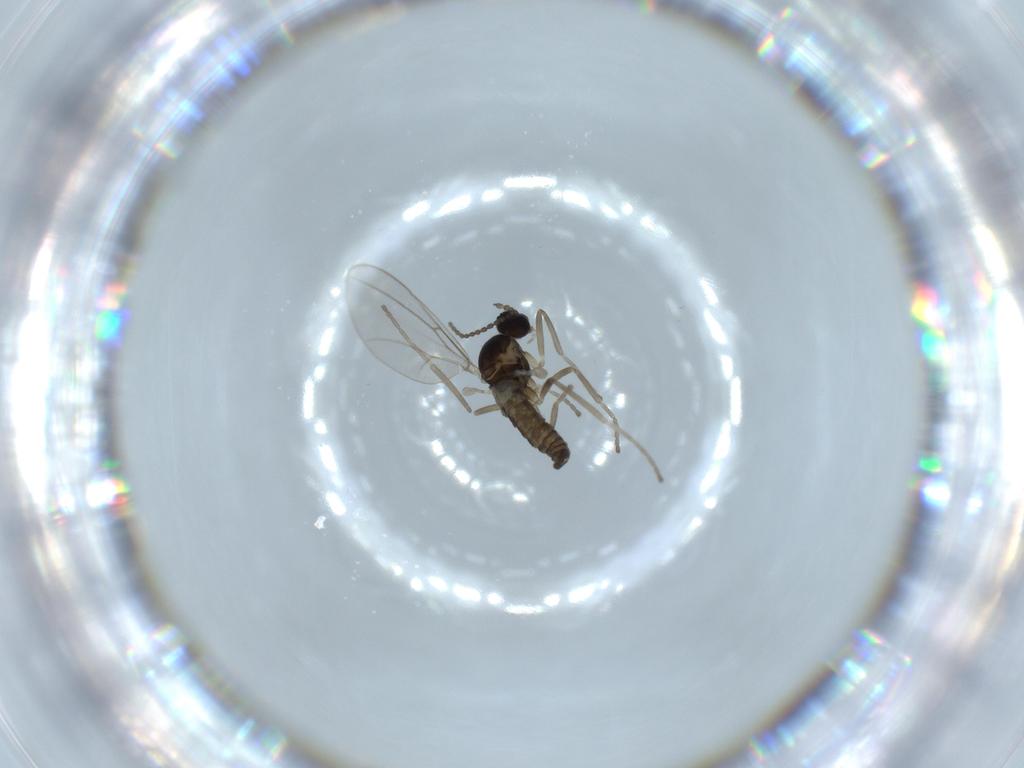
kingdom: Animalia
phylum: Arthropoda
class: Insecta
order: Diptera
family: Cecidomyiidae
